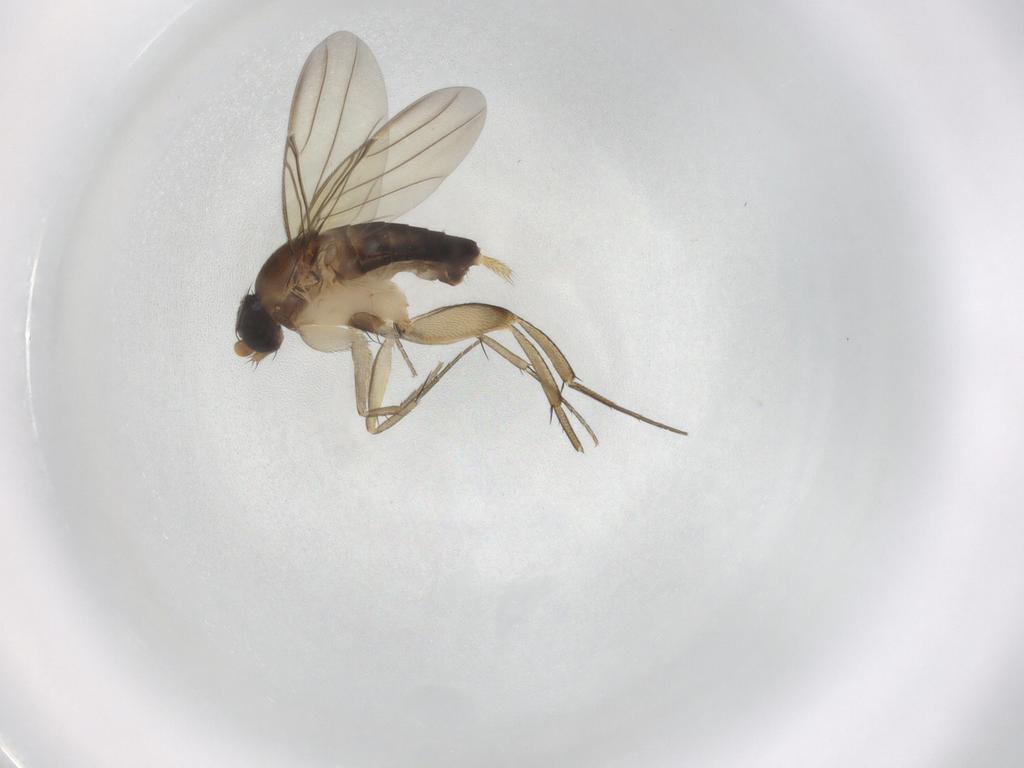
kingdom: Animalia
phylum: Arthropoda
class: Insecta
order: Diptera
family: Phoridae
